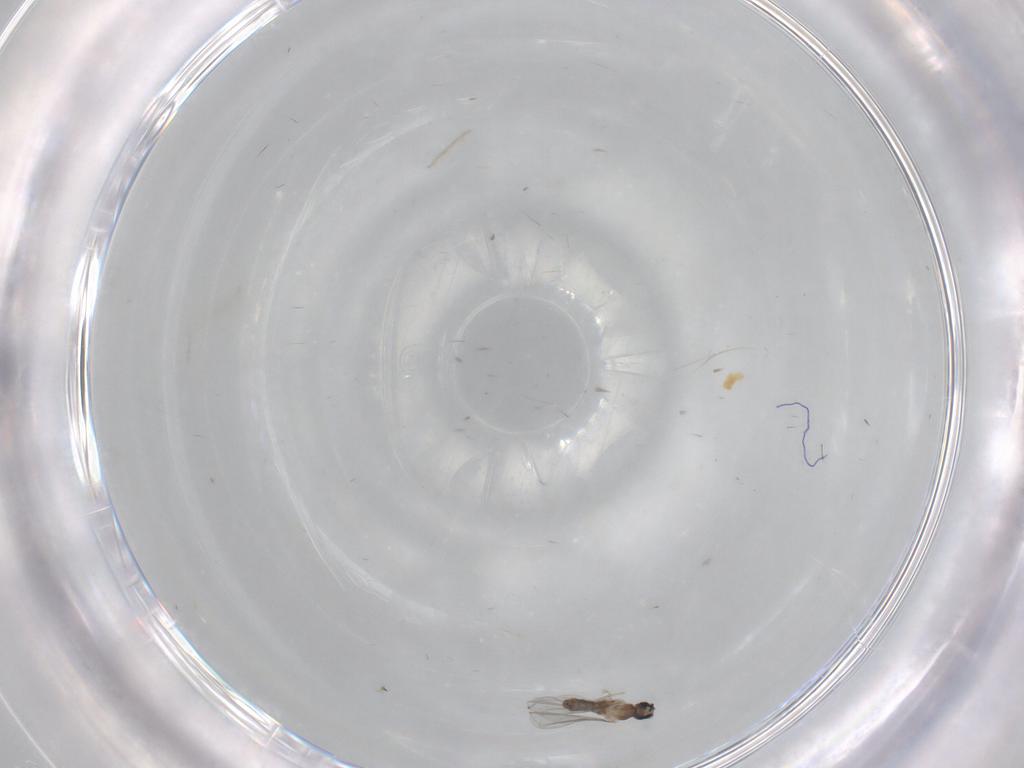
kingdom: Animalia
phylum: Arthropoda
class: Insecta
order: Diptera
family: Cecidomyiidae
